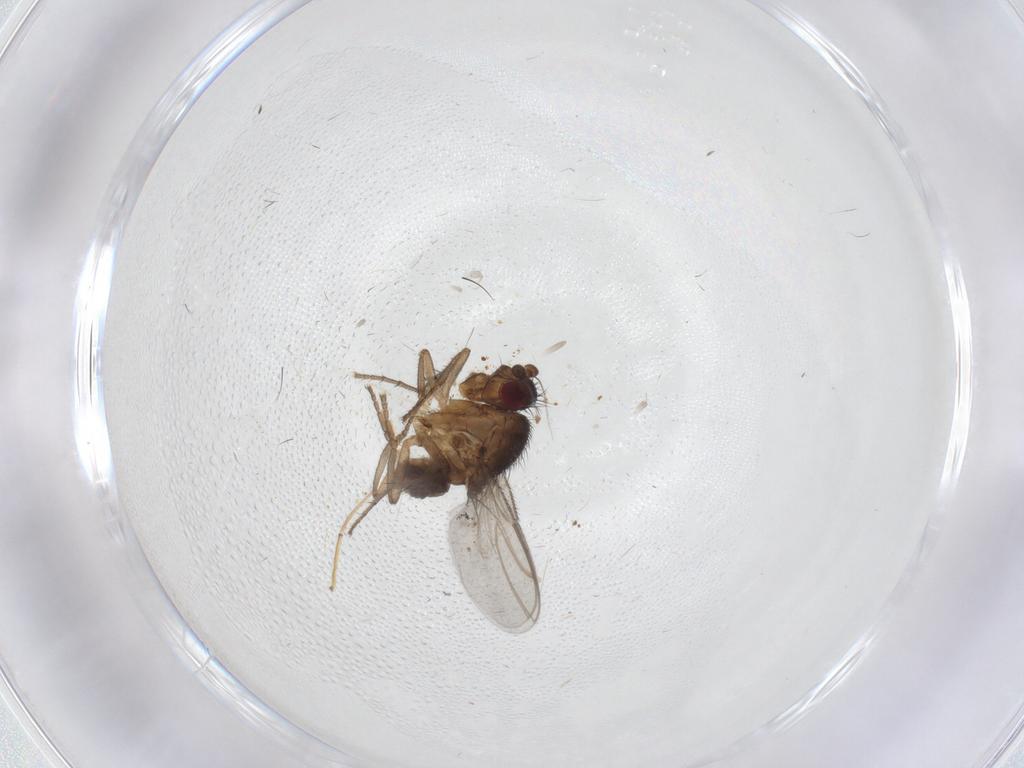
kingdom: Animalia
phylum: Arthropoda
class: Insecta
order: Diptera
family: Sphaeroceridae
